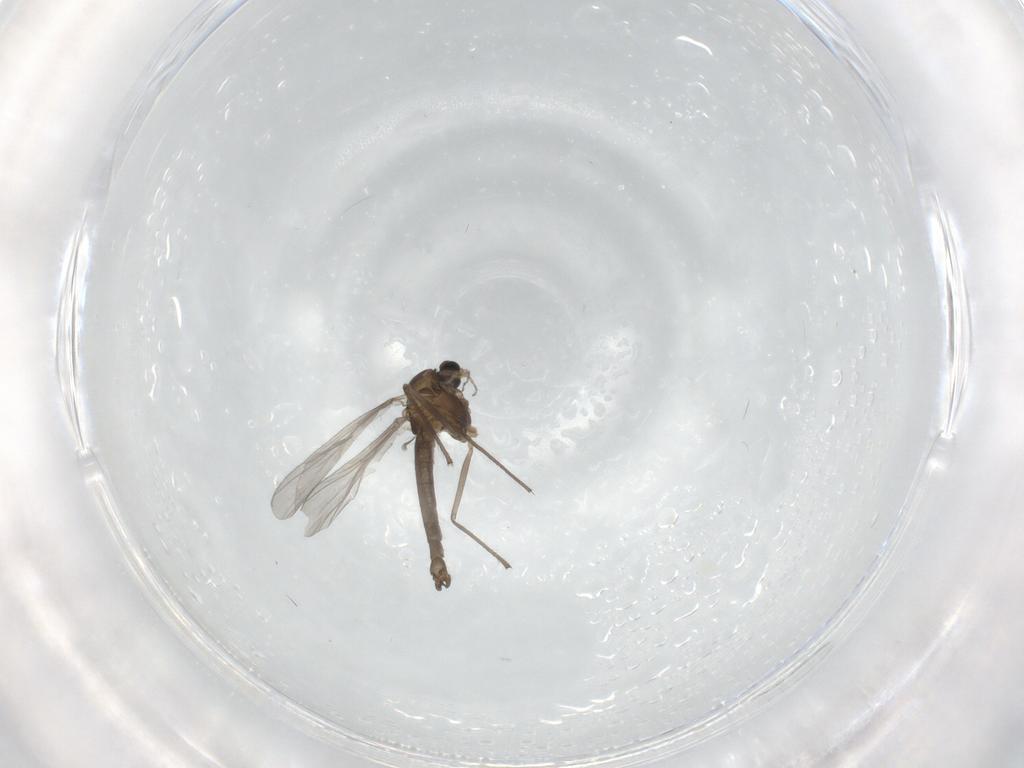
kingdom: Animalia
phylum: Arthropoda
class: Insecta
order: Diptera
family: Chironomidae
